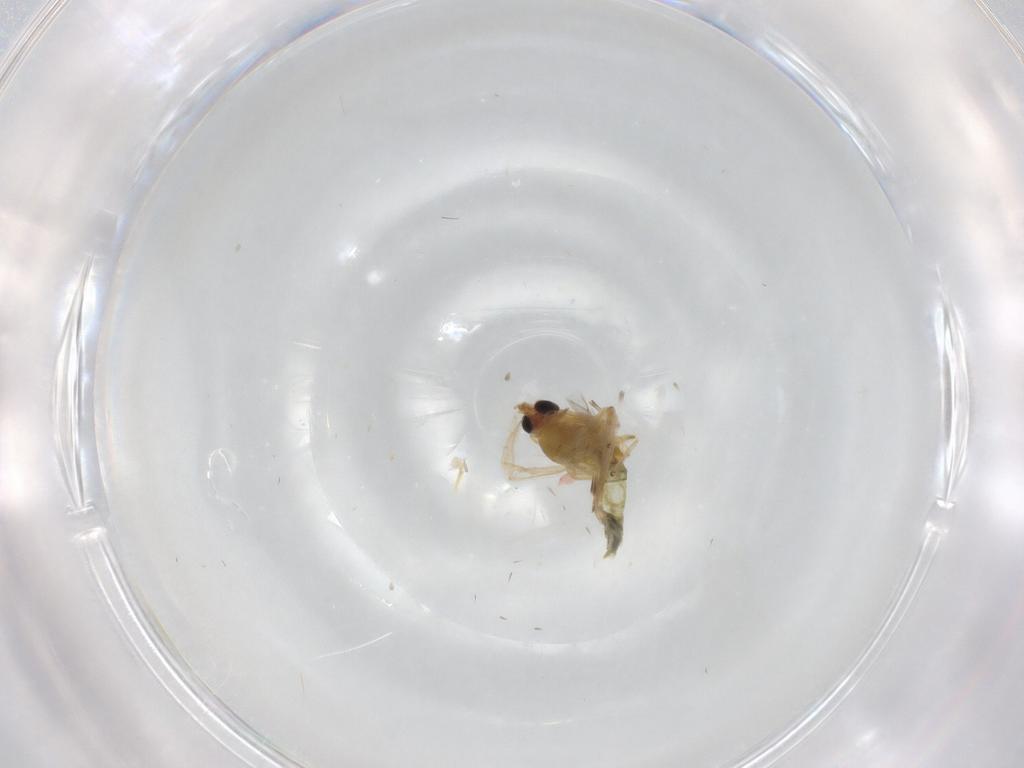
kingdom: Animalia
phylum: Arthropoda
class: Insecta
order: Diptera
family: Chironomidae
